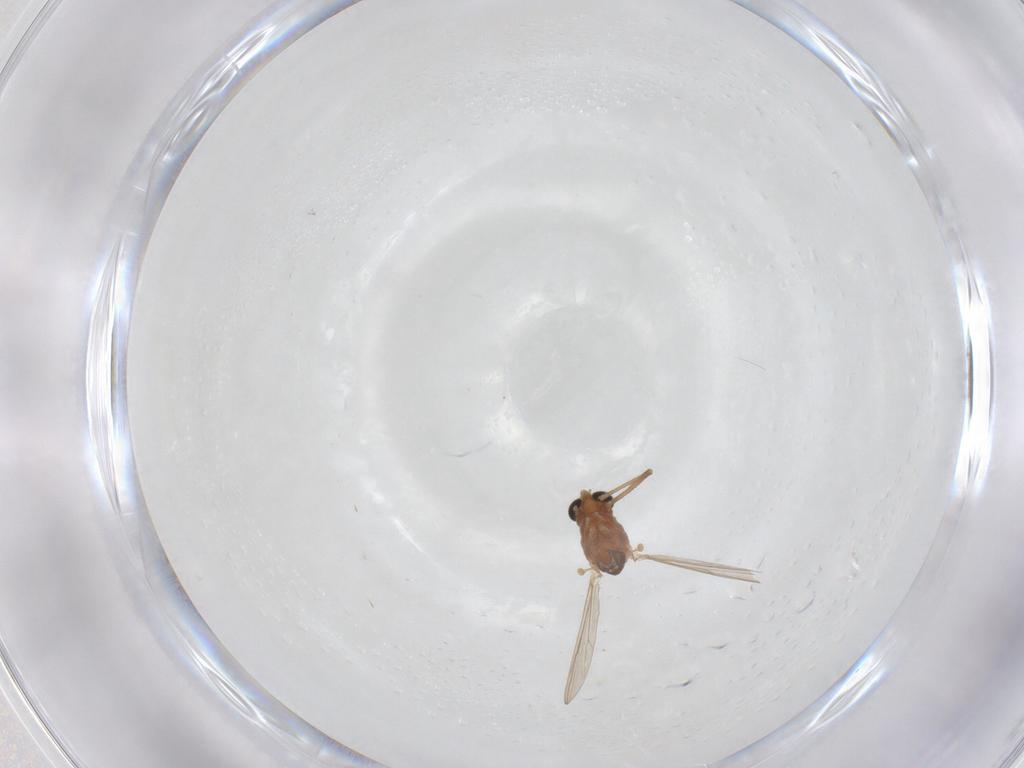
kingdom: Animalia
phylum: Arthropoda
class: Insecta
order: Diptera
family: Chironomidae
